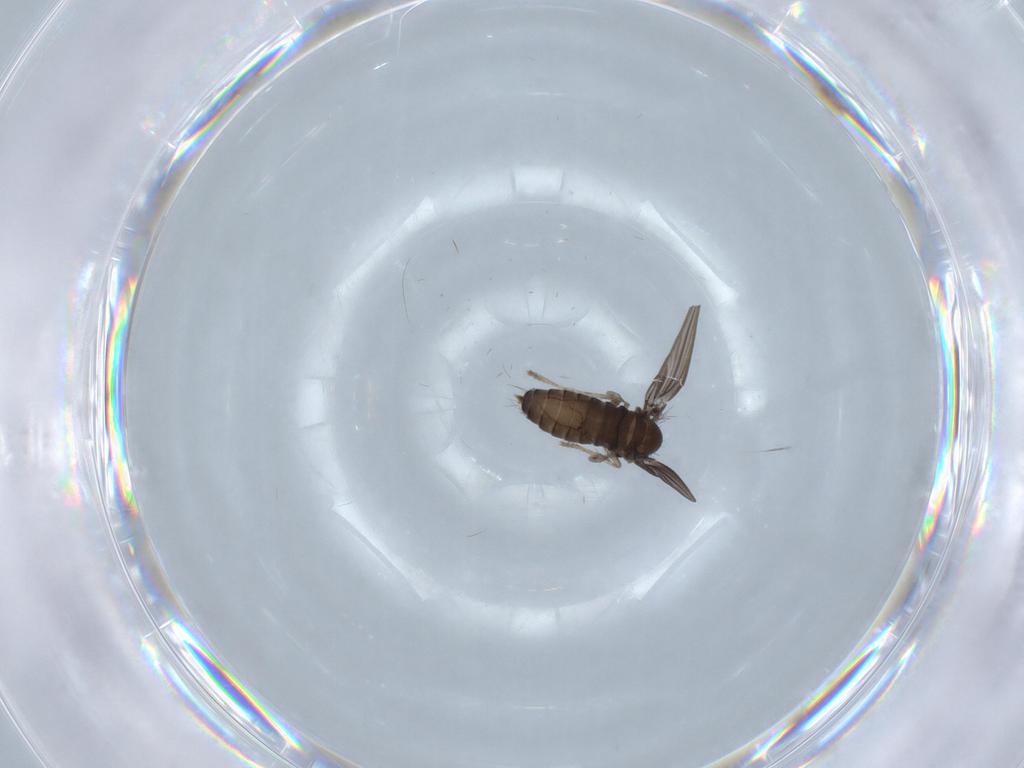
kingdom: Animalia
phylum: Arthropoda
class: Insecta
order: Diptera
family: Psychodidae
